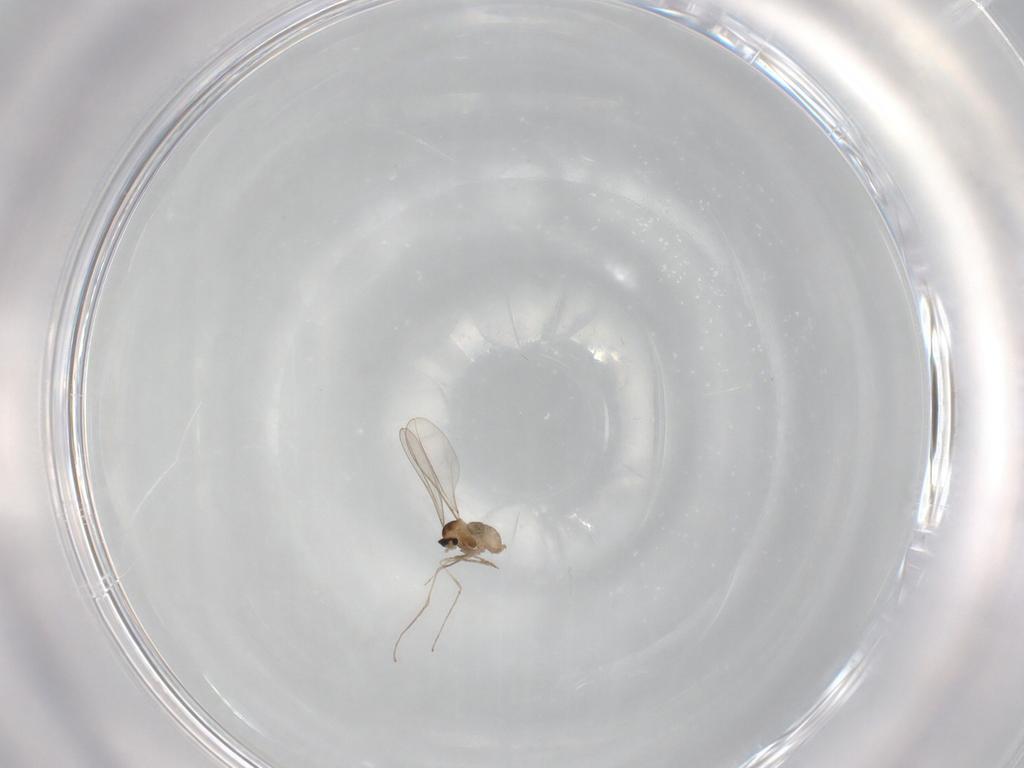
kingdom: Animalia
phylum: Arthropoda
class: Insecta
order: Diptera
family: Cecidomyiidae
